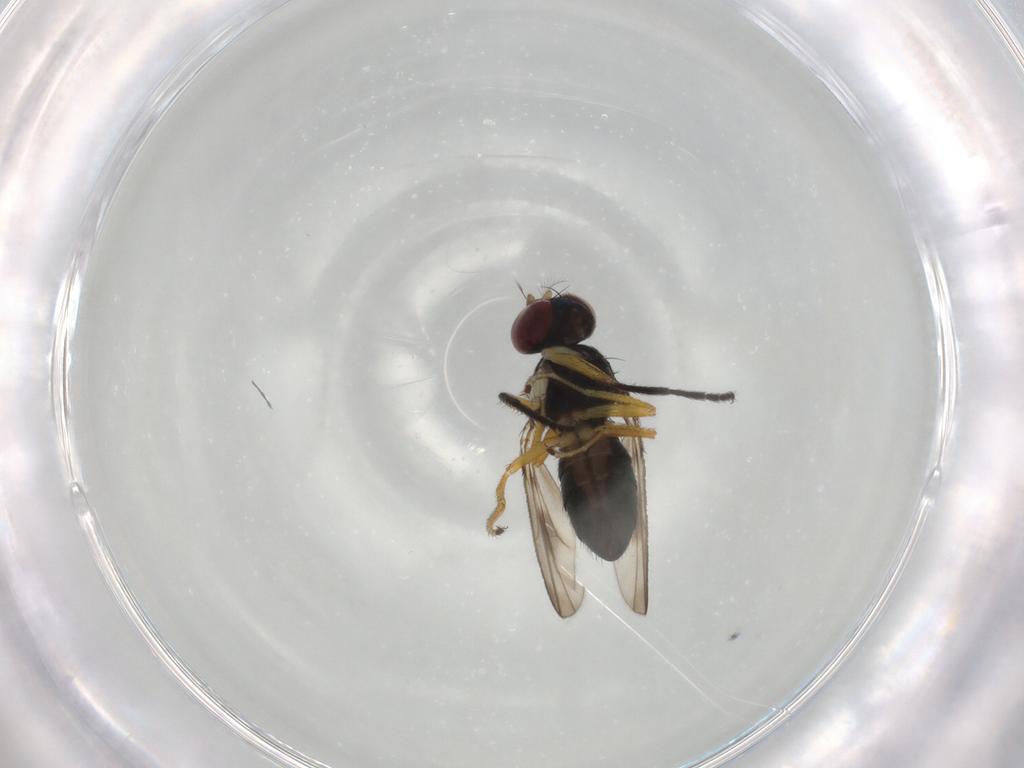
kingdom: Animalia
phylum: Arthropoda
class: Insecta
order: Diptera
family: Ephydridae
